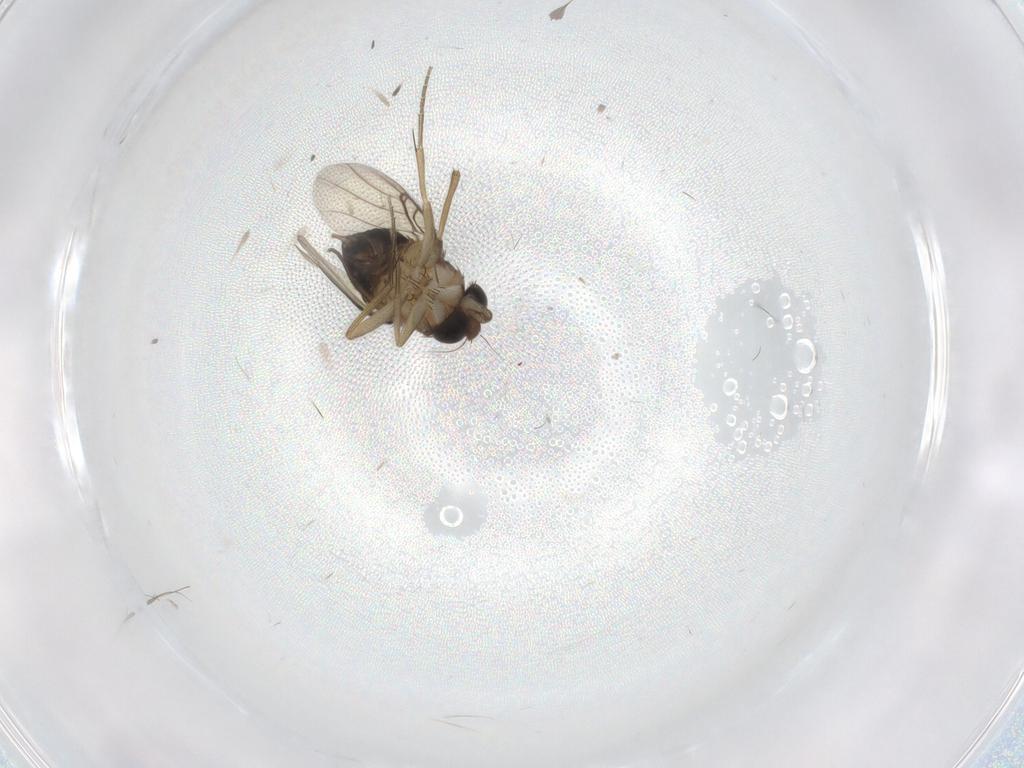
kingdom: Animalia
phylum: Arthropoda
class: Insecta
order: Diptera
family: Chironomidae
